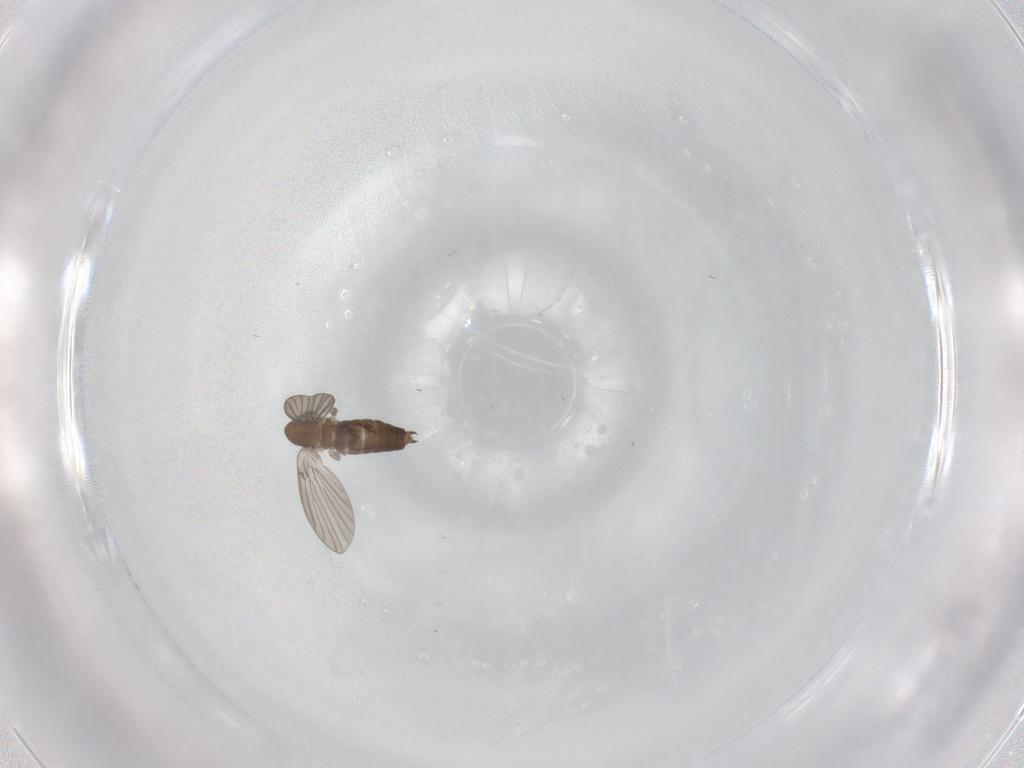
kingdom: Animalia
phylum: Arthropoda
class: Insecta
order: Diptera
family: Psychodidae
